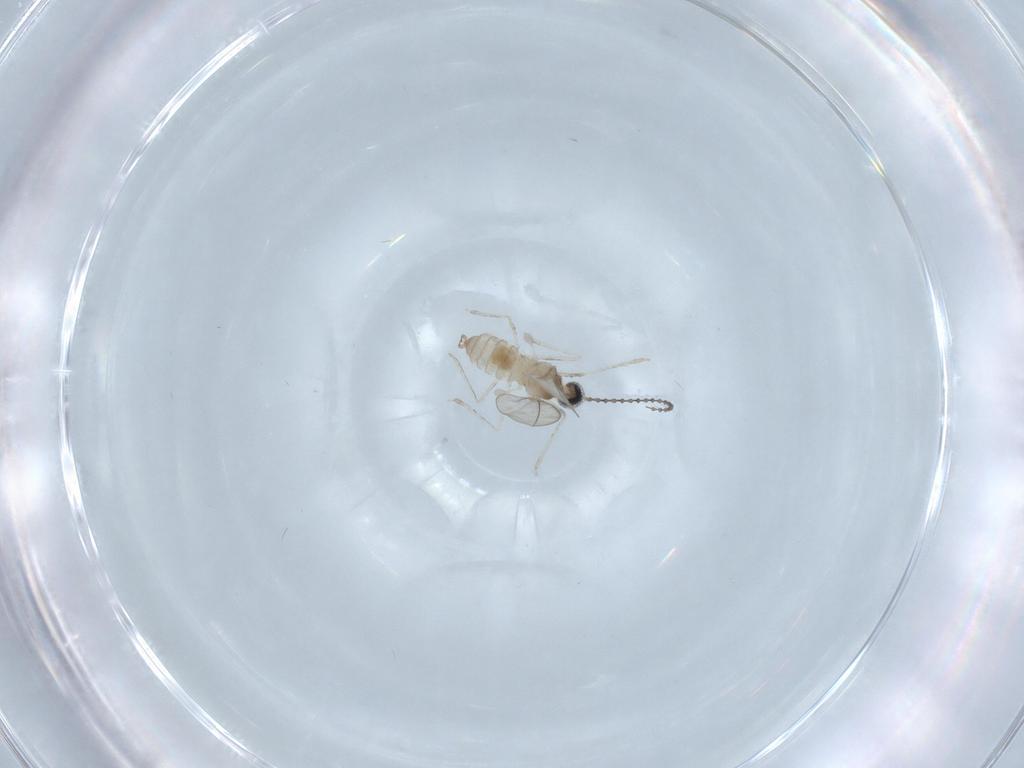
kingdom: Animalia
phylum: Arthropoda
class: Insecta
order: Diptera
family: Cecidomyiidae
